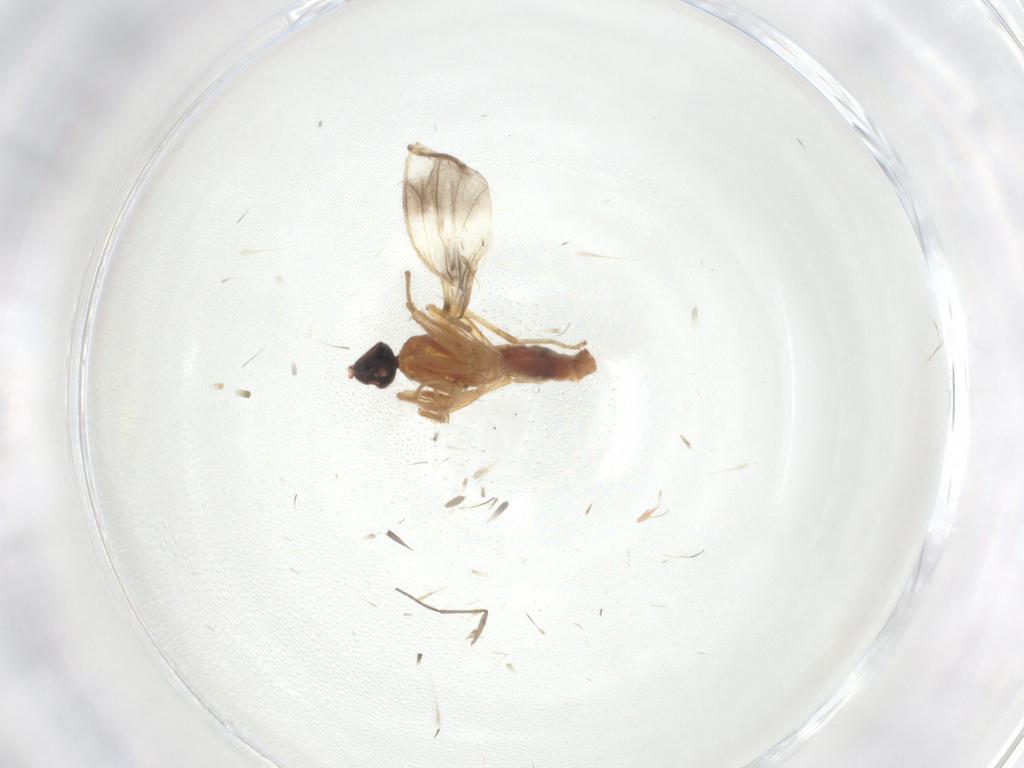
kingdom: Animalia
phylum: Arthropoda
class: Insecta
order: Diptera
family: Empididae
